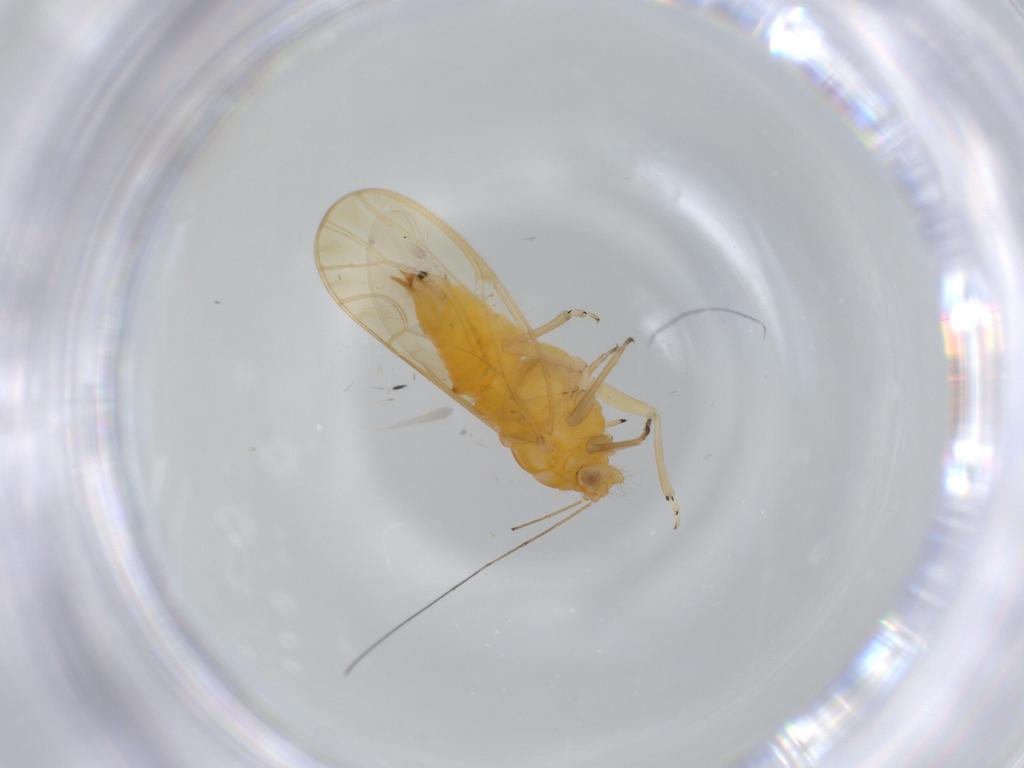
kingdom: Animalia
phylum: Arthropoda
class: Insecta
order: Hemiptera
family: Psyllidae
